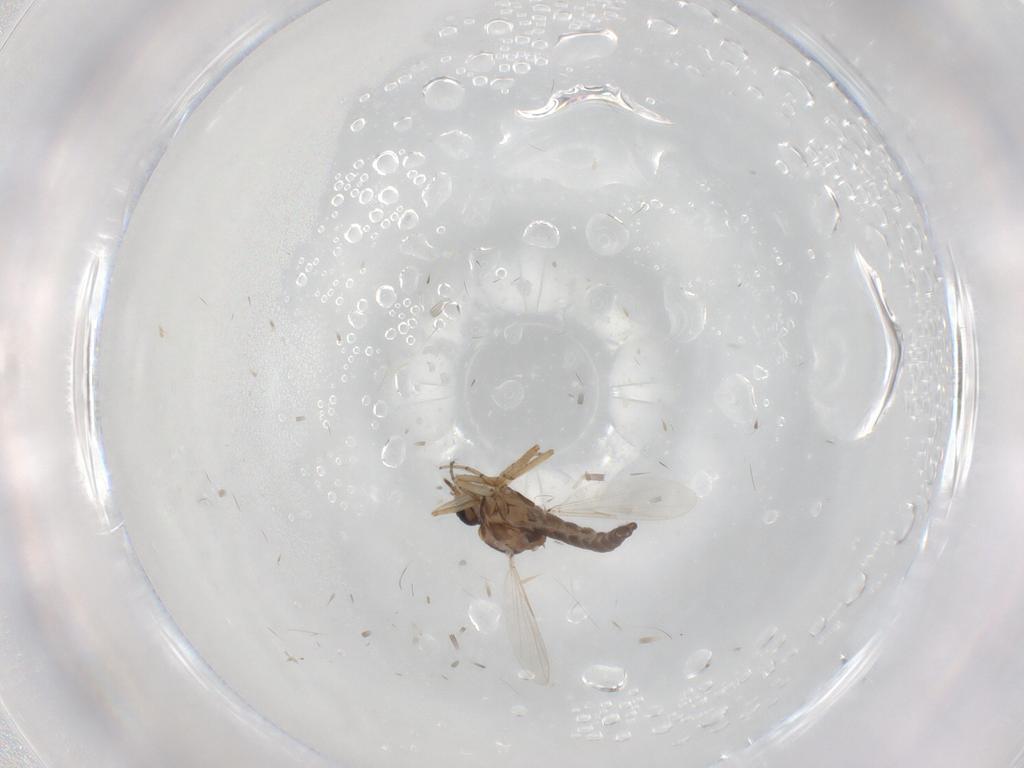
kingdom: Animalia
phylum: Arthropoda
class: Insecta
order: Diptera
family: Ceratopogonidae
